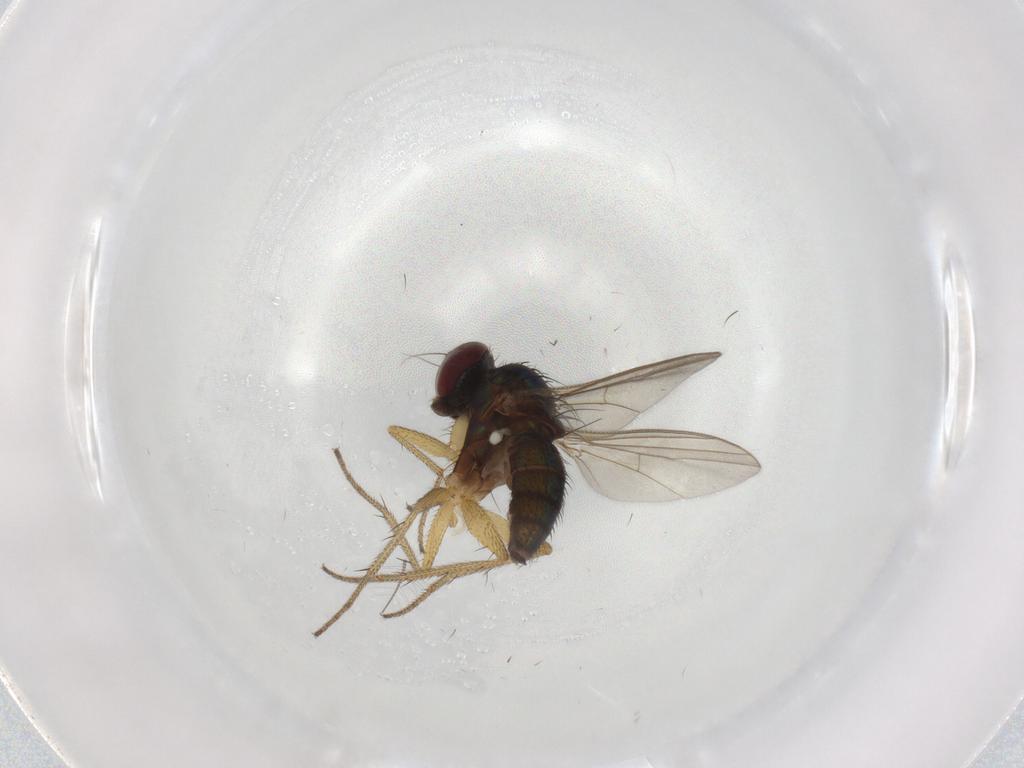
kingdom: Animalia
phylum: Arthropoda
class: Insecta
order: Diptera
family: Chironomidae
